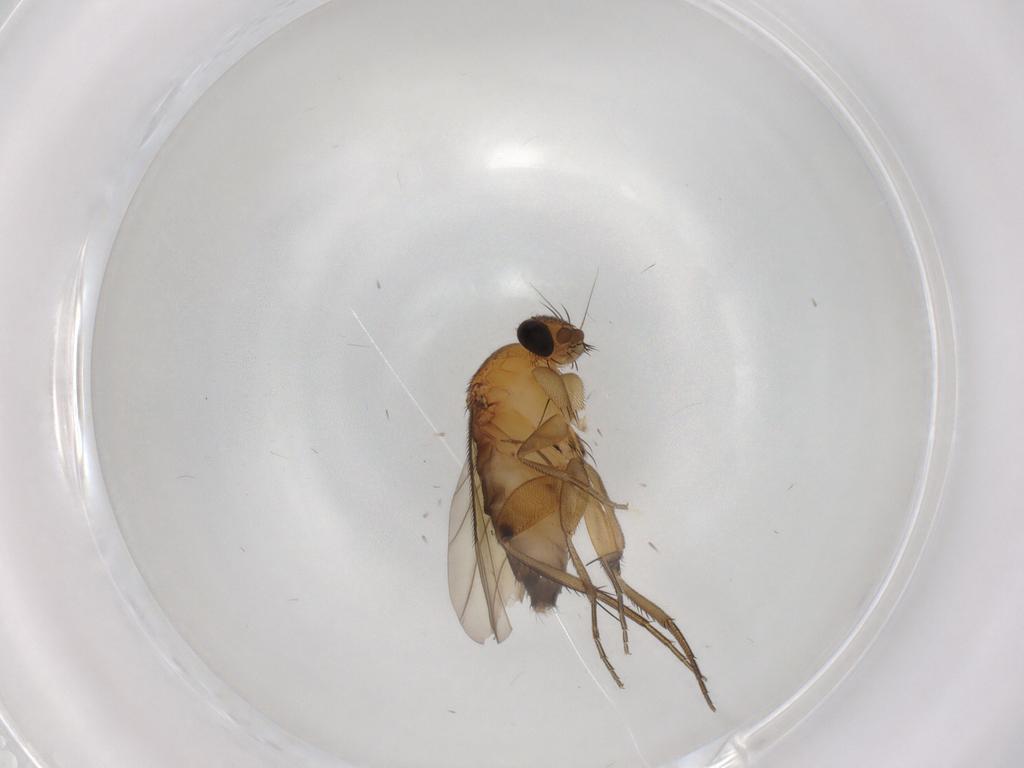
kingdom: Animalia
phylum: Arthropoda
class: Insecta
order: Diptera
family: Phoridae
